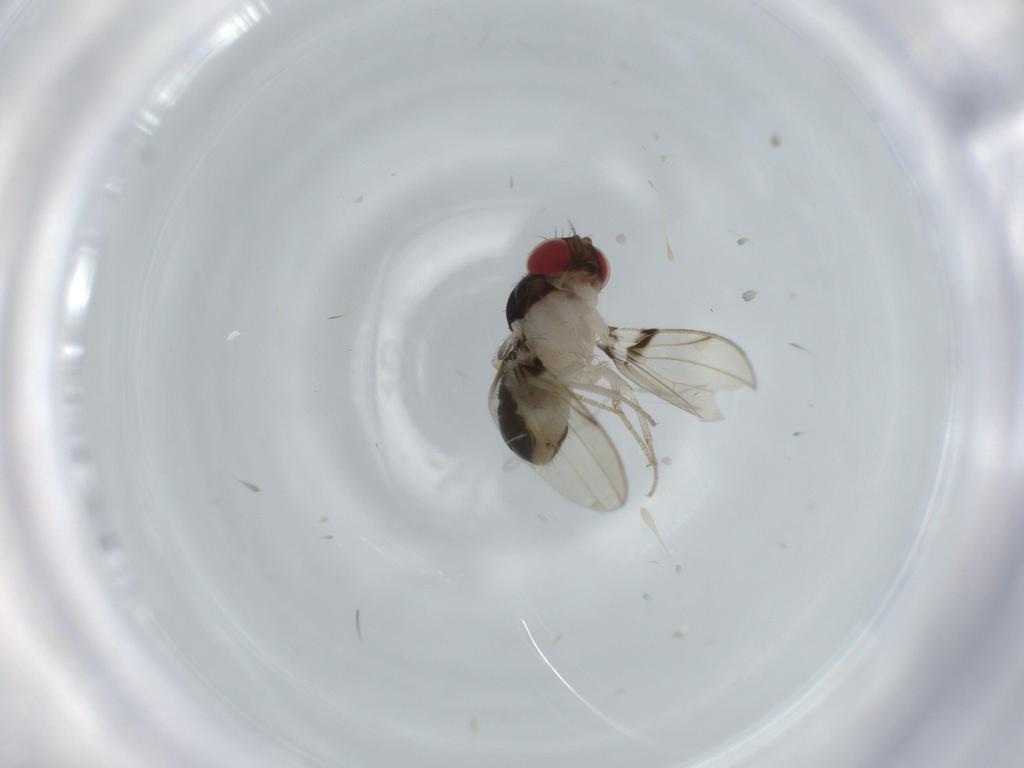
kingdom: Animalia
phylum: Arthropoda
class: Insecta
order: Diptera
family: Drosophilidae
